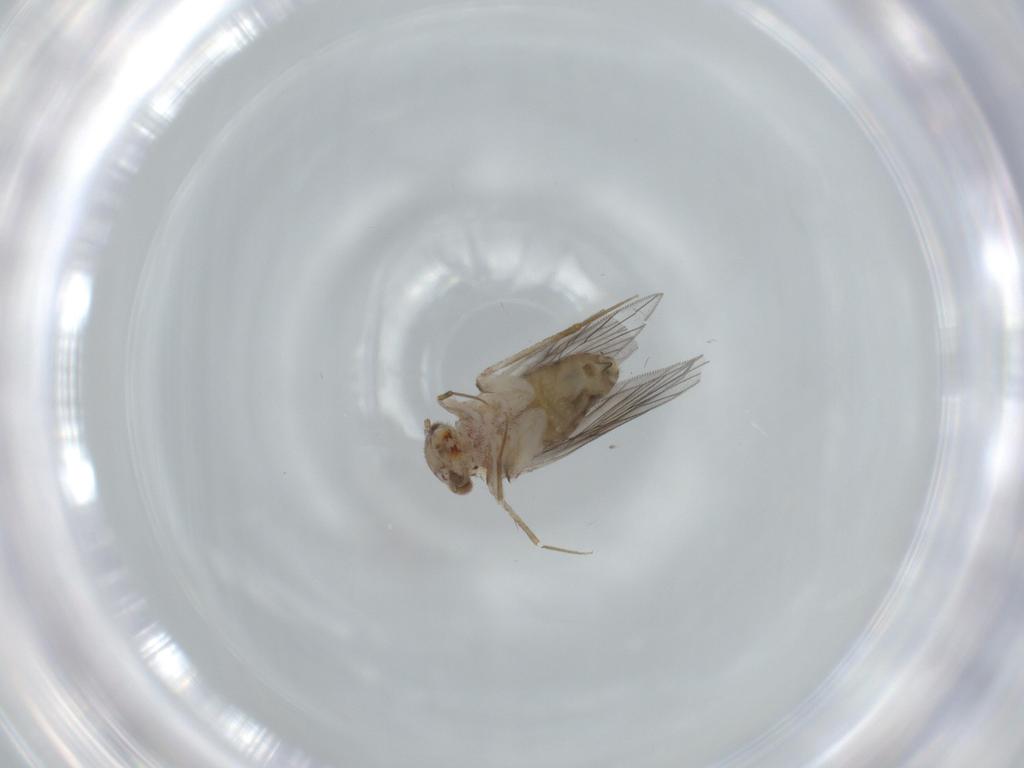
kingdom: Animalia
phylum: Arthropoda
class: Insecta
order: Psocodea
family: Lepidopsocidae
